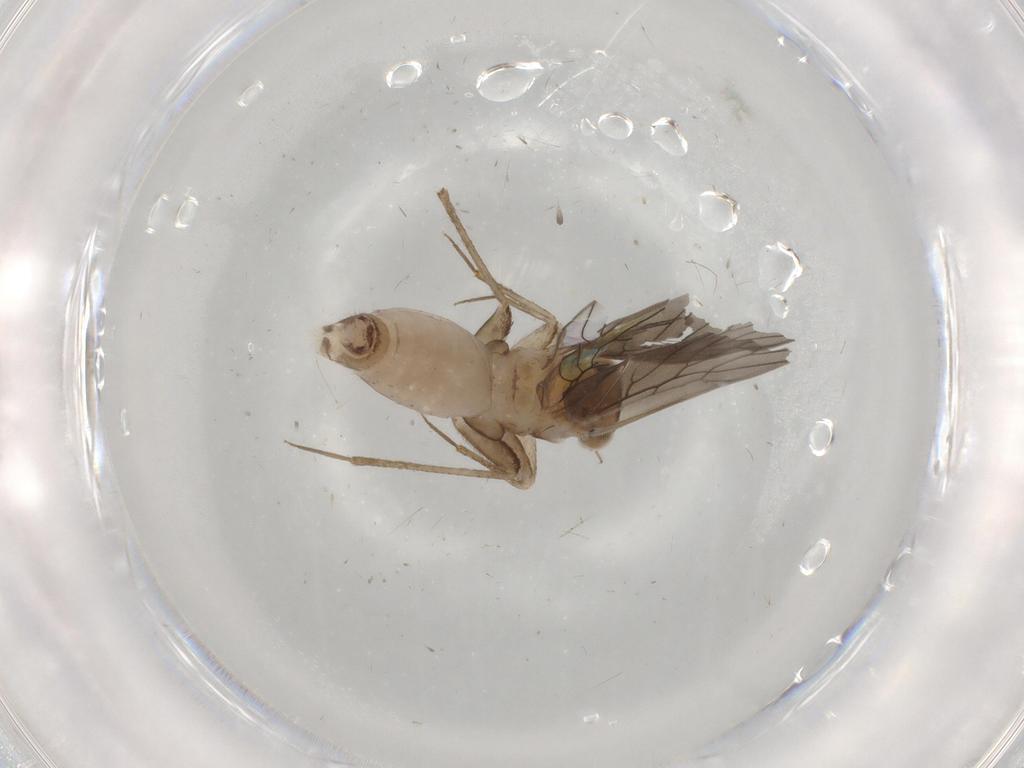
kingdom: Animalia
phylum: Arthropoda
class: Insecta
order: Psocodea
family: Lepidopsocidae
